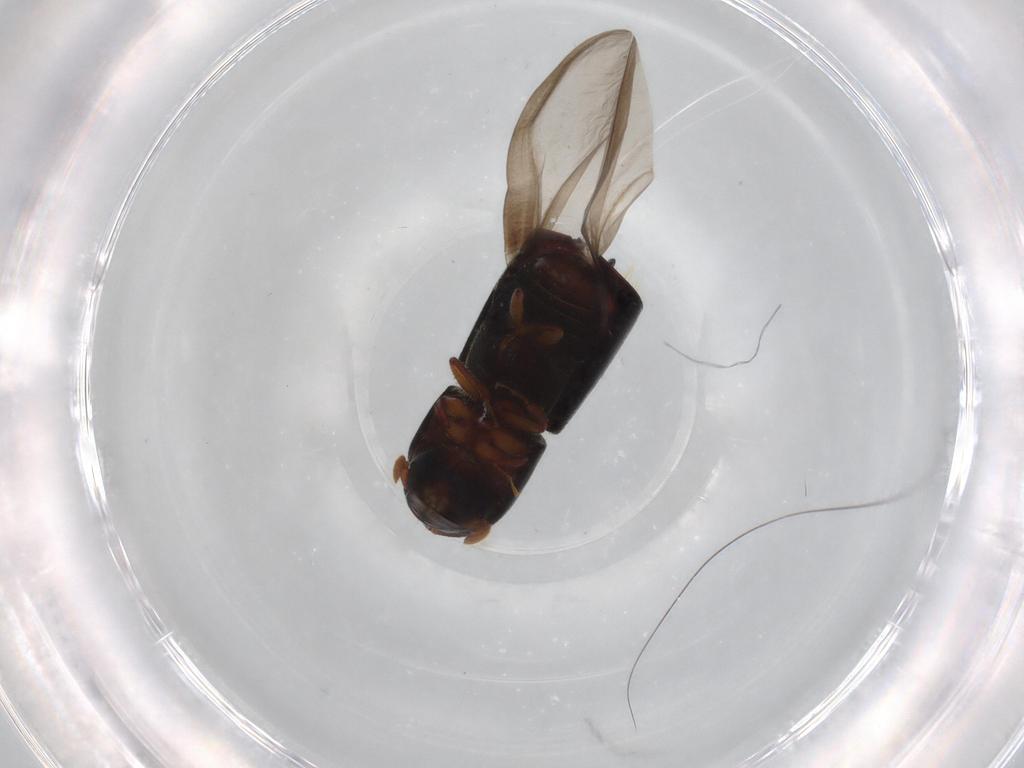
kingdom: Animalia
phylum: Arthropoda
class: Insecta
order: Coleoptera
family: Curculionidae
